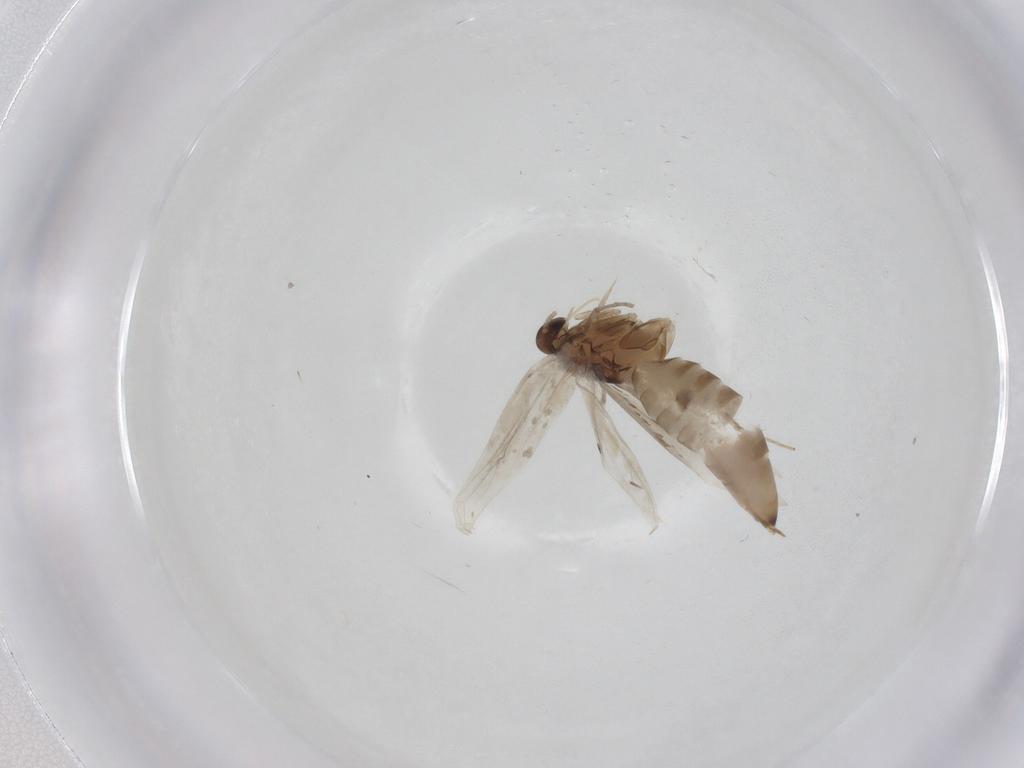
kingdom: Animalia
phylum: Arthropoda
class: Insecta
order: Lepidoptera
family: Heliozelidae
